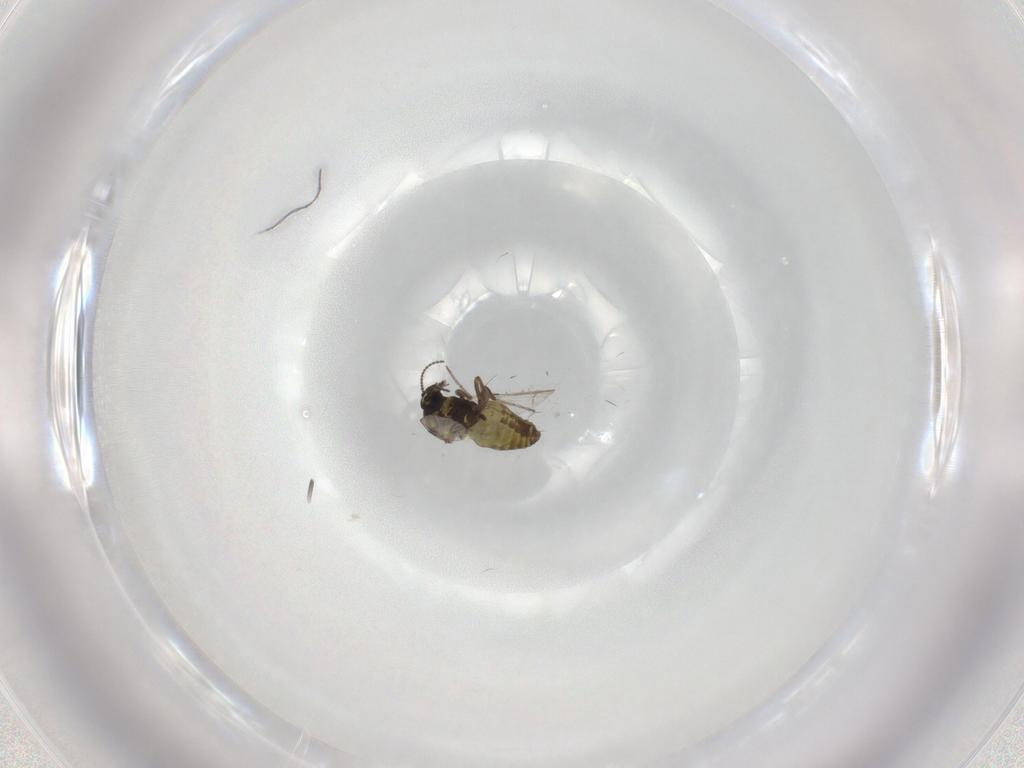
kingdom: Animalia
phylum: Arthropoda
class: Insecta
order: Diptera
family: Ceratopogonidae
